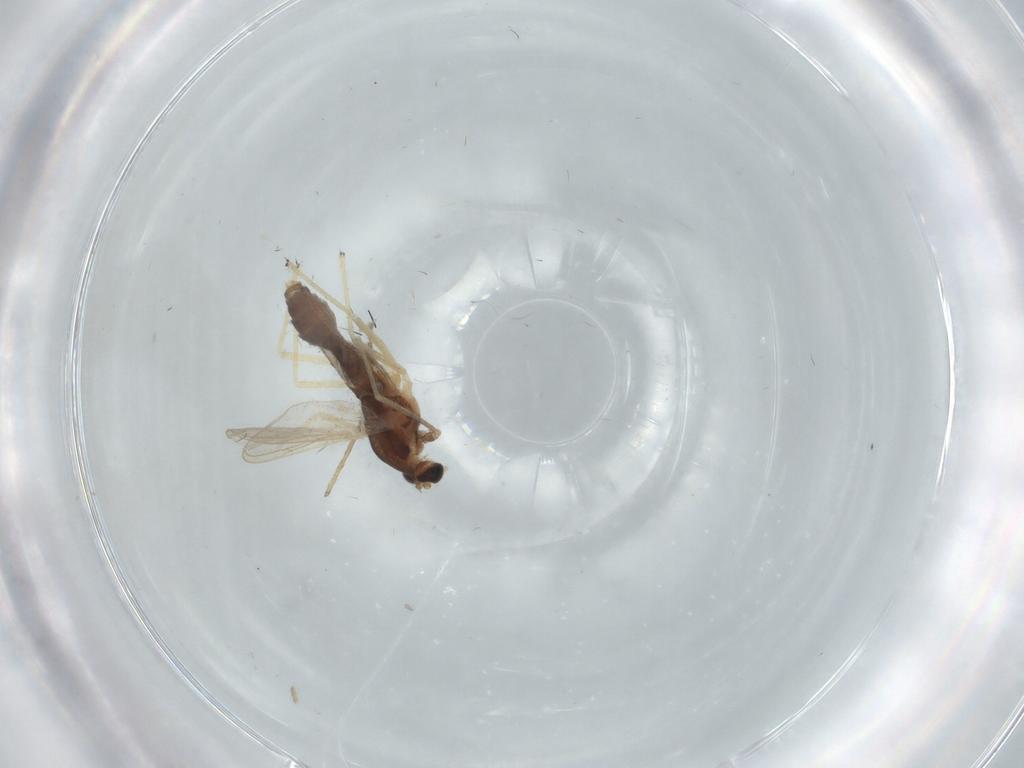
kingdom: Animalia
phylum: Arthropoda
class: Insecta
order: Diptera
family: Chironomidae
